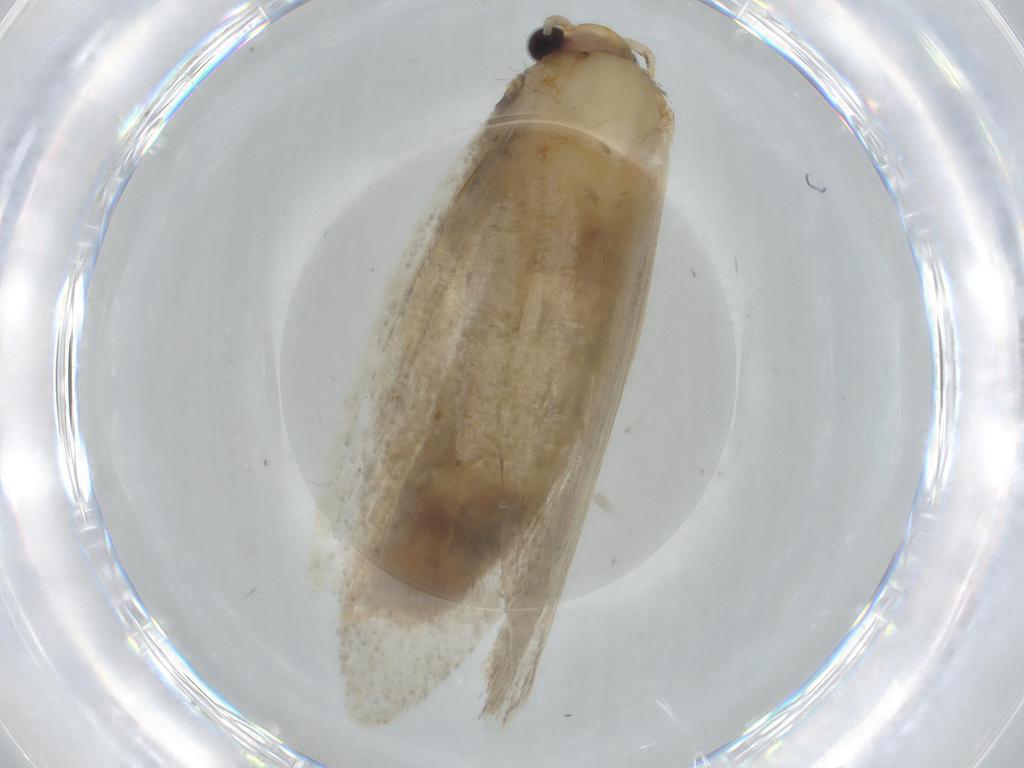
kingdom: Animalia
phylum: Arthropoda
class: Insecta
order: Lepidoptera
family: Tineidae
